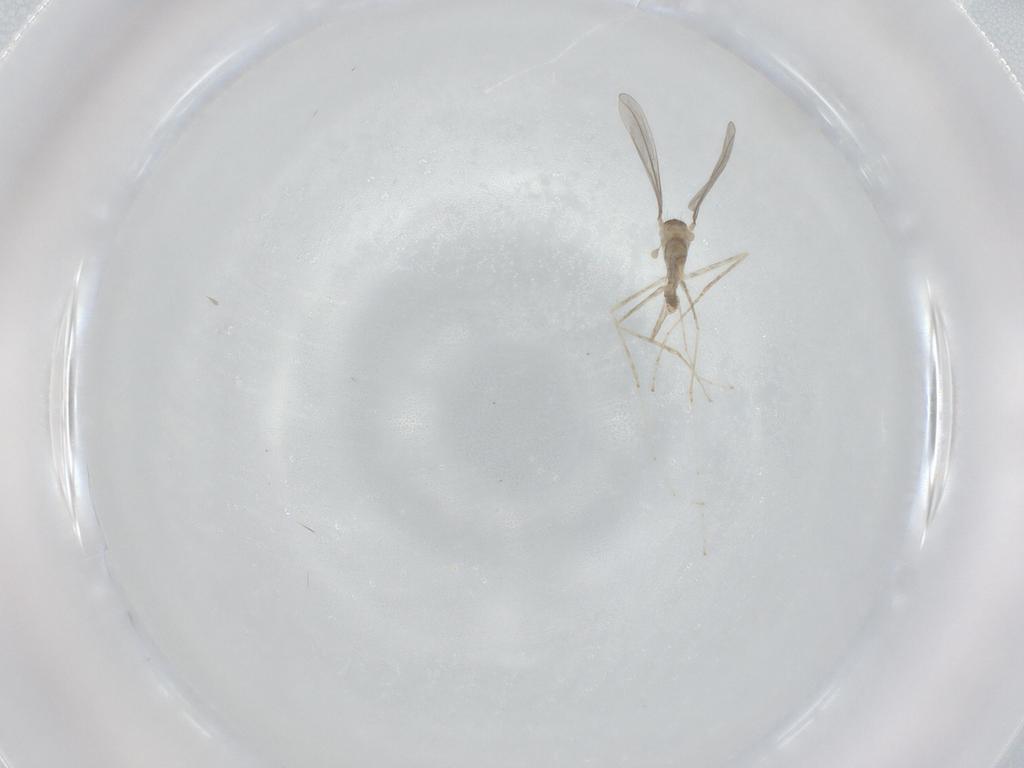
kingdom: Animalia
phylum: Arthropoda
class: Insecta
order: Diptera
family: Cecidomyiidae
